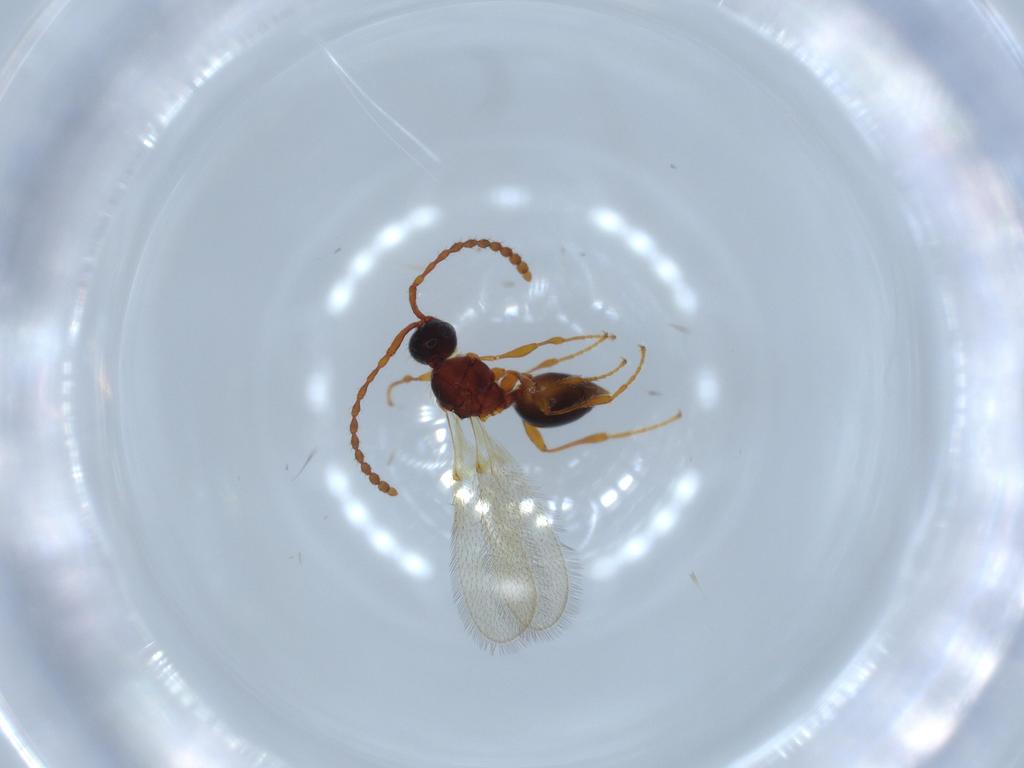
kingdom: Animalia
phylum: Arthropoda
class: Insecta
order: Hymenoptera
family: Diapriidae
